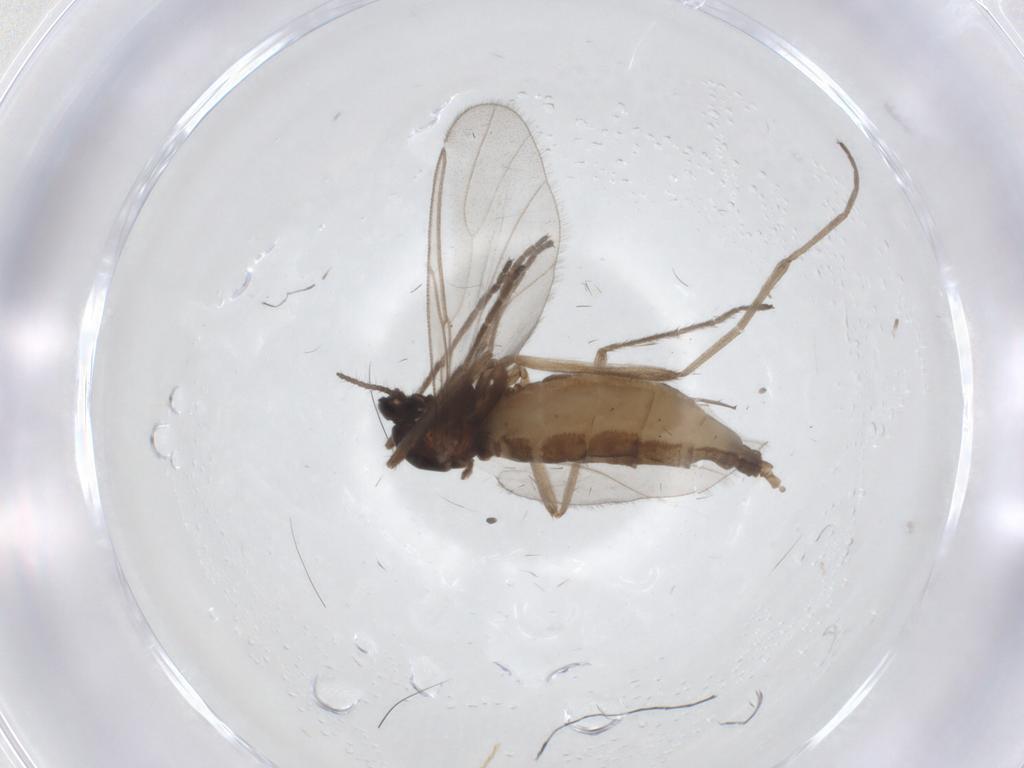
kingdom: Animalia
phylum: Arthropoda
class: Insecta
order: Diptera
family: Cecidomyiidae
